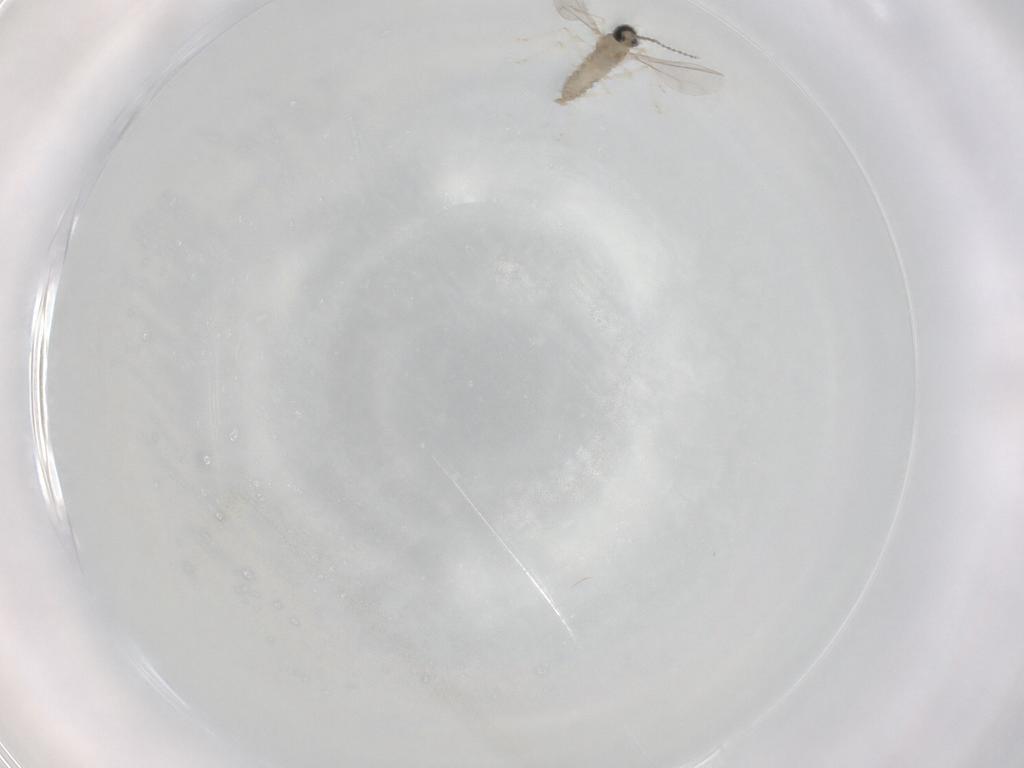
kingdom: Animalia
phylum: Arthropoda
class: Insecta
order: Diptera
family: Cecidomyiidae
